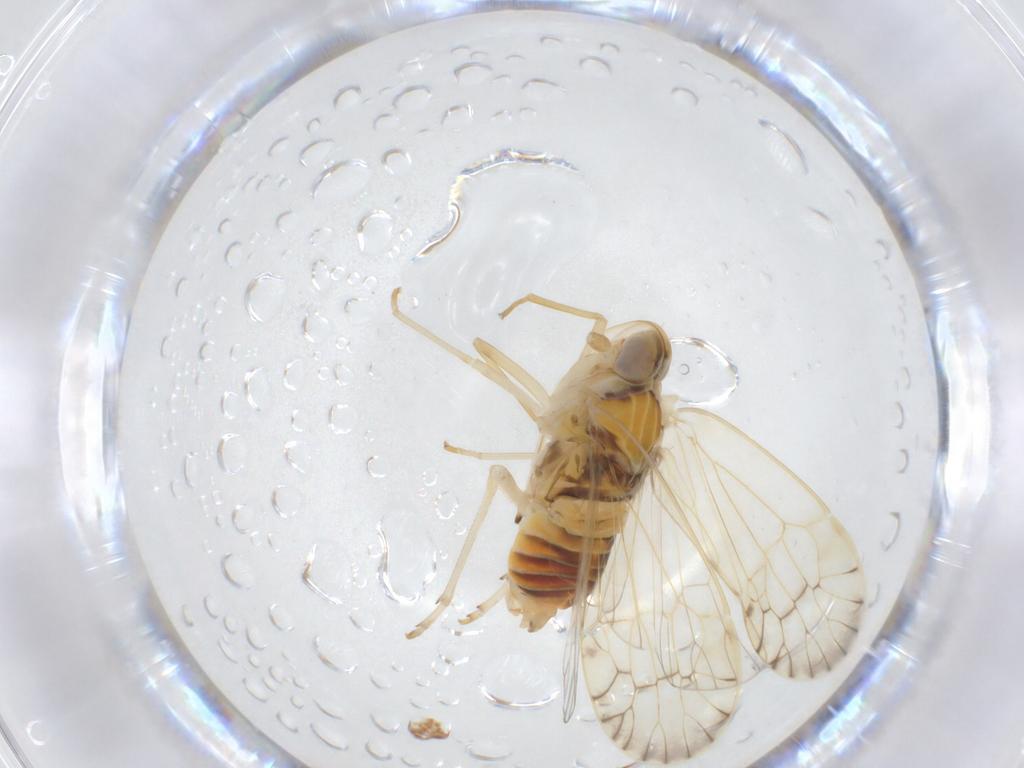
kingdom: Animalia
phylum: Arthropoda
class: Insecta
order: Hemiptera
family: Kinnaridae
